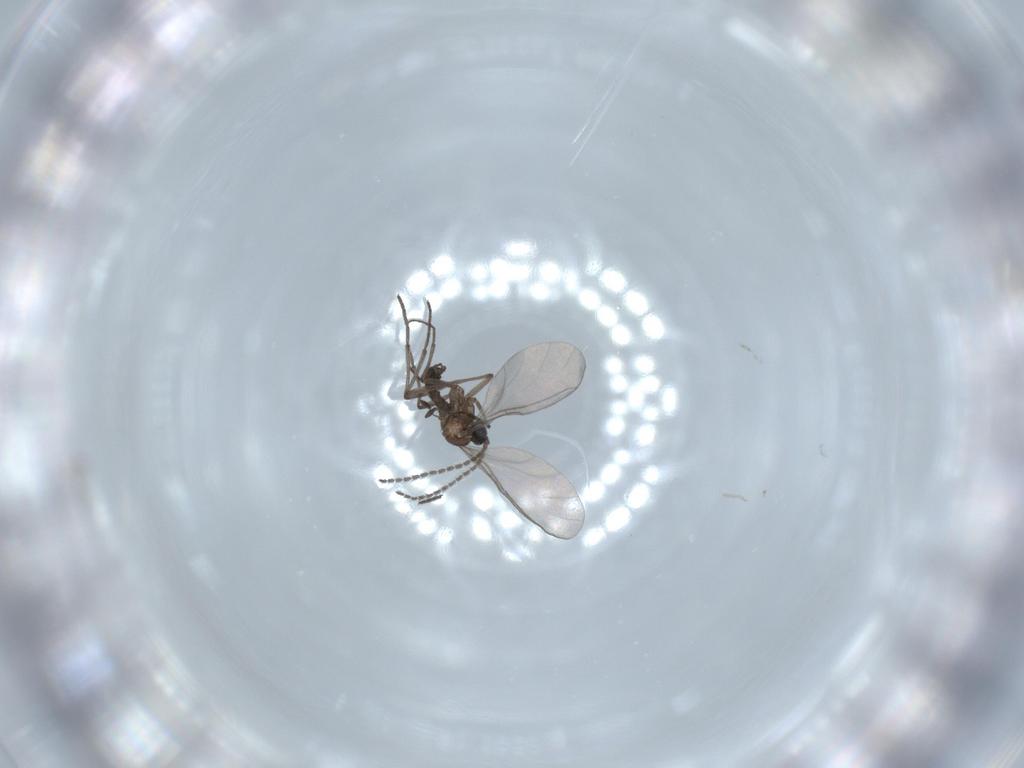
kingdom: Animalia
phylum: Arthropoda
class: Insecta
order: Diptera
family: Sciaridae
